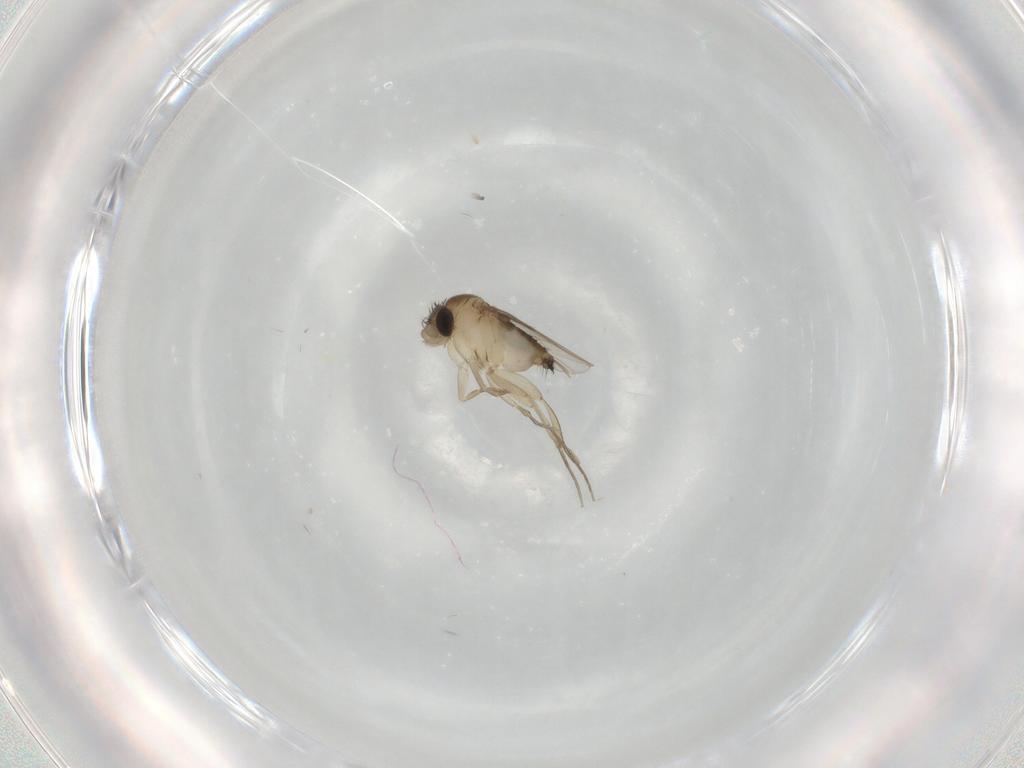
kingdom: Animalia
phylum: Arthropoda
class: Insecta
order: Diptera
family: Phoridae
